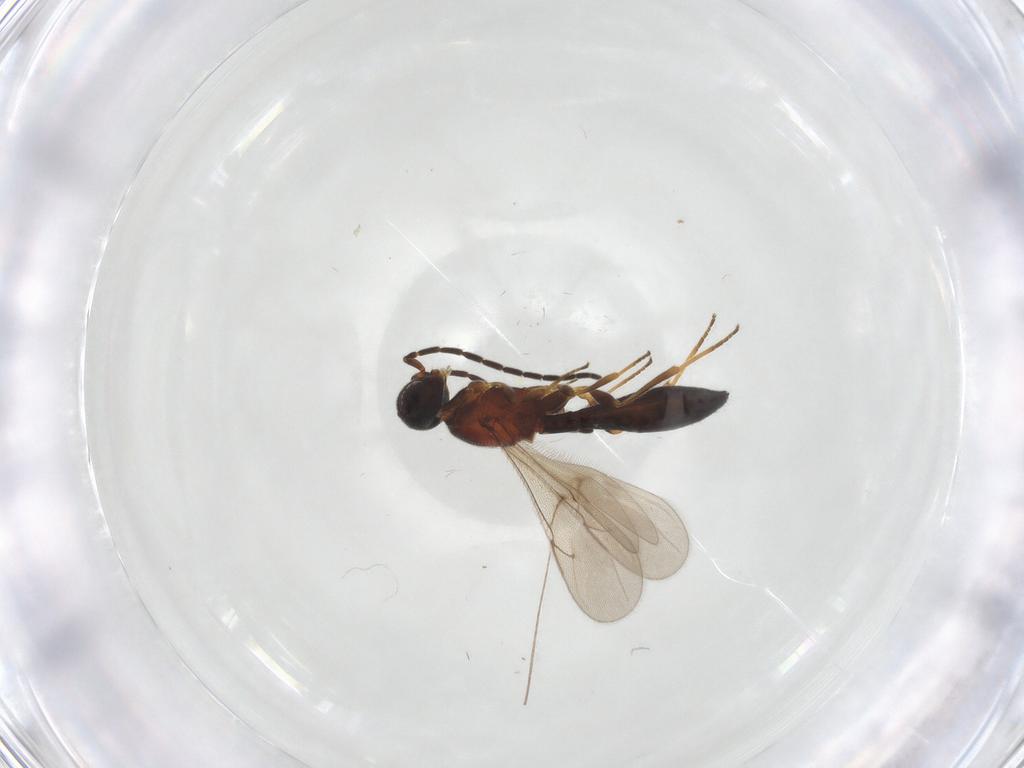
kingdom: Animalia
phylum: Arthropoda
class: Insecta
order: Hymenoptera
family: Scelionidae
